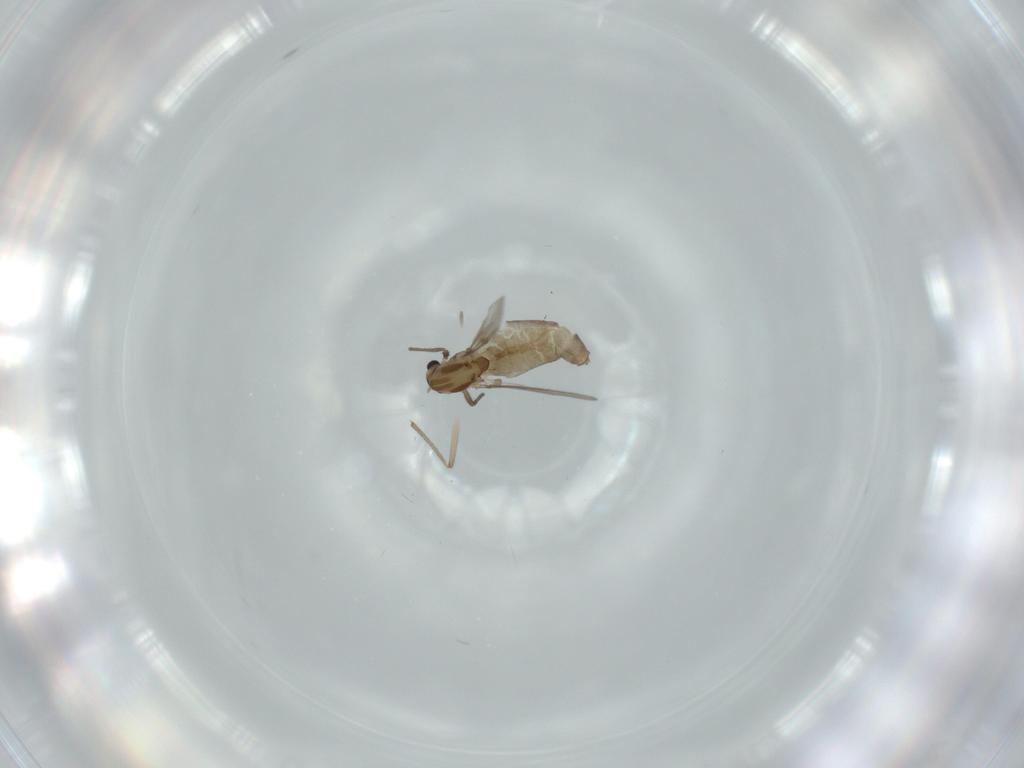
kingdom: Animalia
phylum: Arthropoda
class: Insecta
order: Diptera
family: Chironomidae
